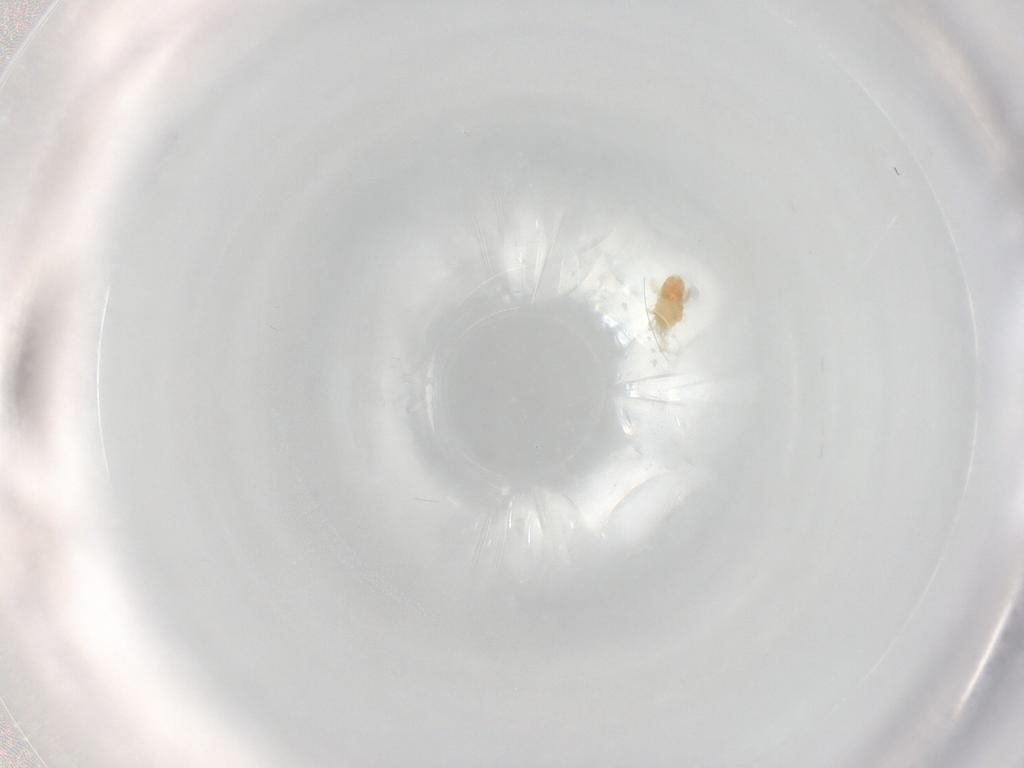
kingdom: Animalia
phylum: Arthropoda
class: Arachnida
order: Trombidiformes
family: Eupodidae
